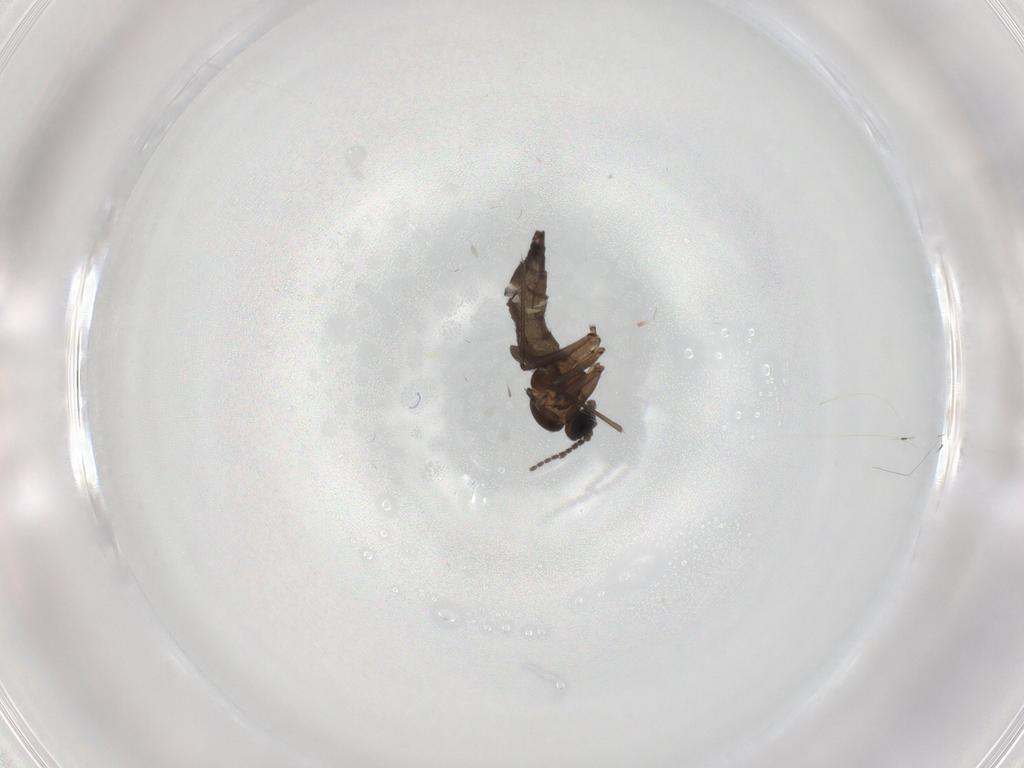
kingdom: Animalia
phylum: Arthropoda
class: Insecta
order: Diptera
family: Sciaridae
